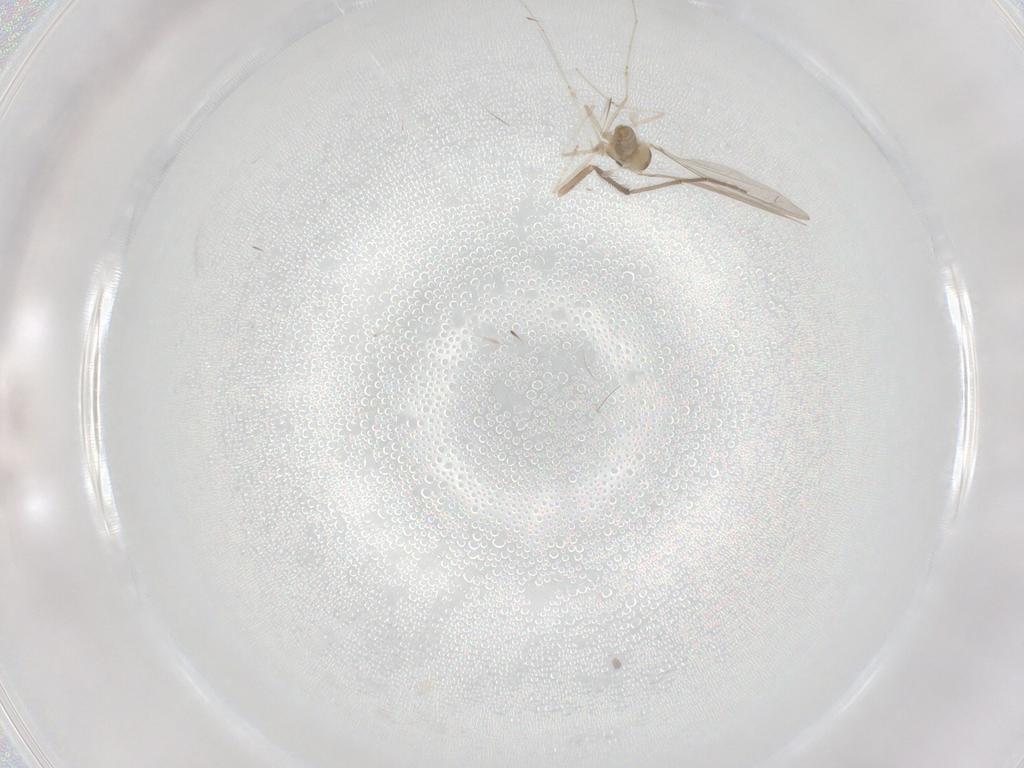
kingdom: Animalia
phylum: Arthropoda
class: Insecta
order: Diptera
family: Cecidomyiidae
